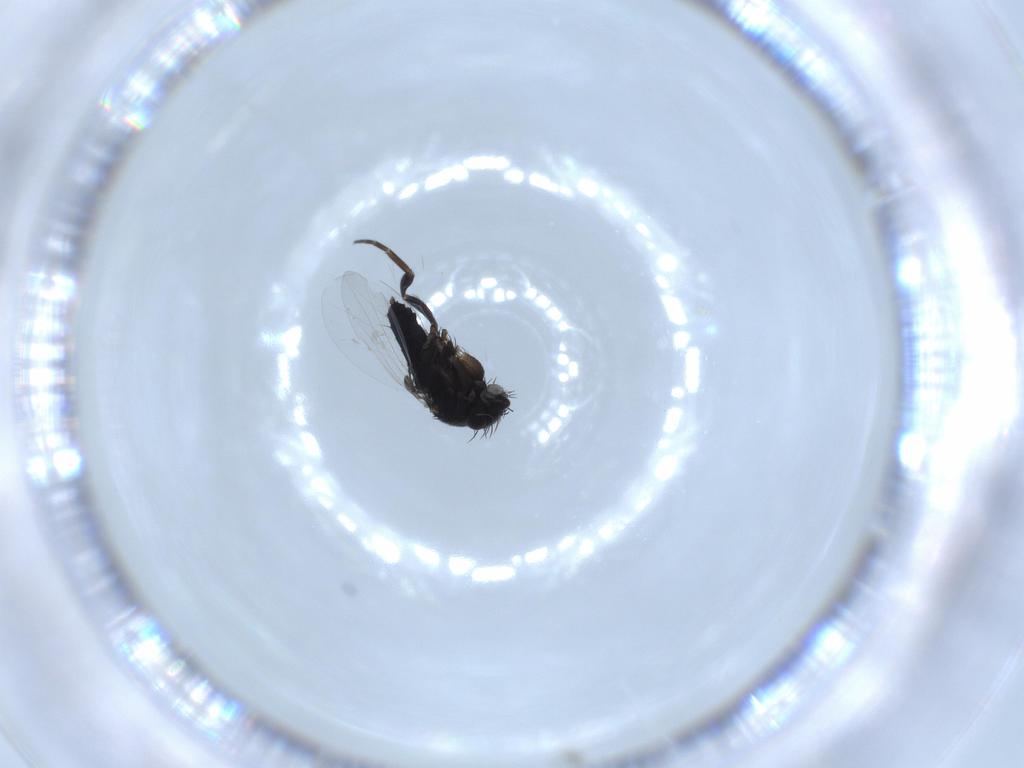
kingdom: Animalia
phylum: Arthropoda
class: Insecta
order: Diptera
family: Phoridae
